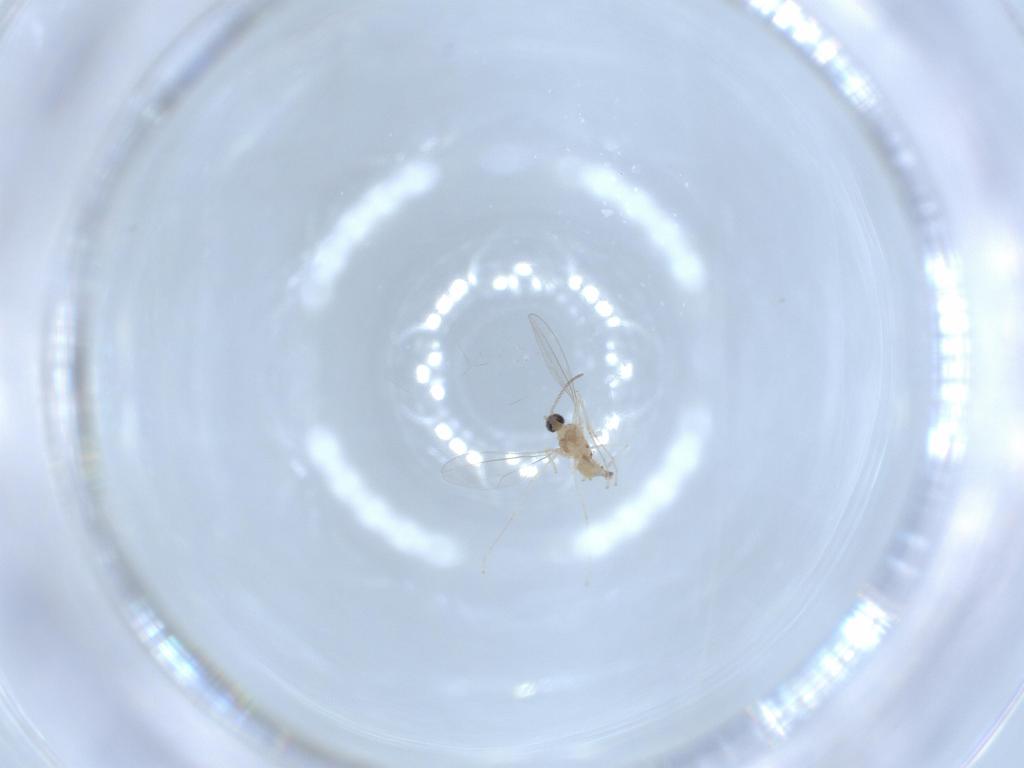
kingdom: Animalia
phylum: Arthropoda
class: Insecta
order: Diptera
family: Cecidomyiidae
